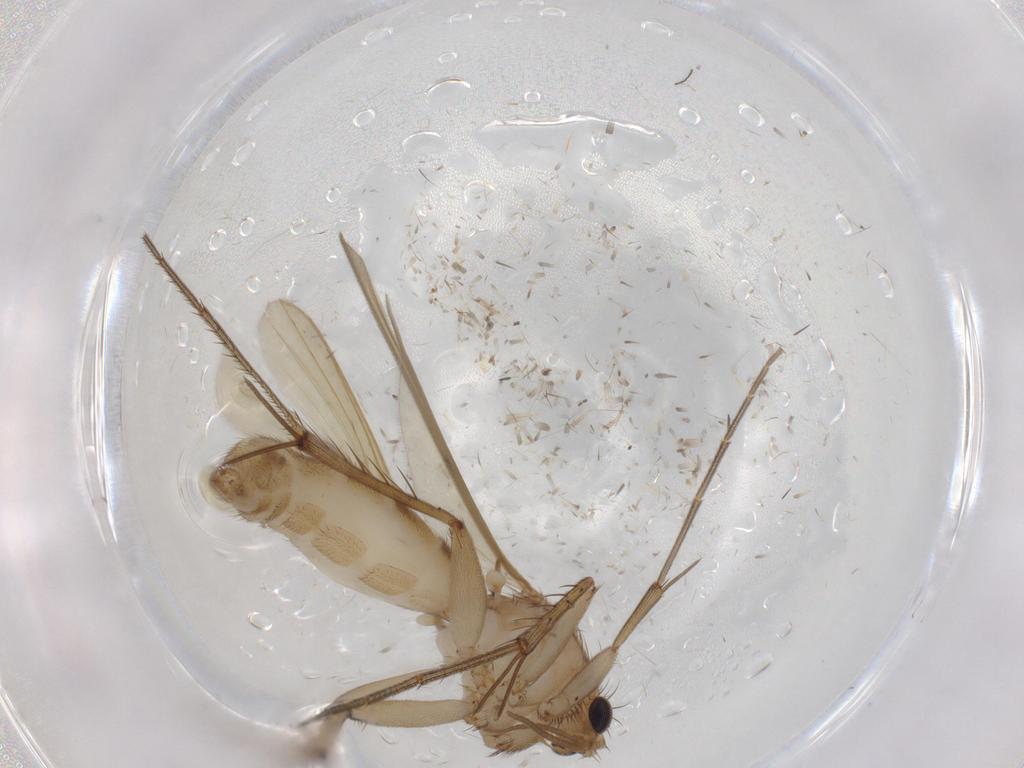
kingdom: Animalia
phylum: Arthropoda
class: Insecta
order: Diptera
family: Mycetophilidae
